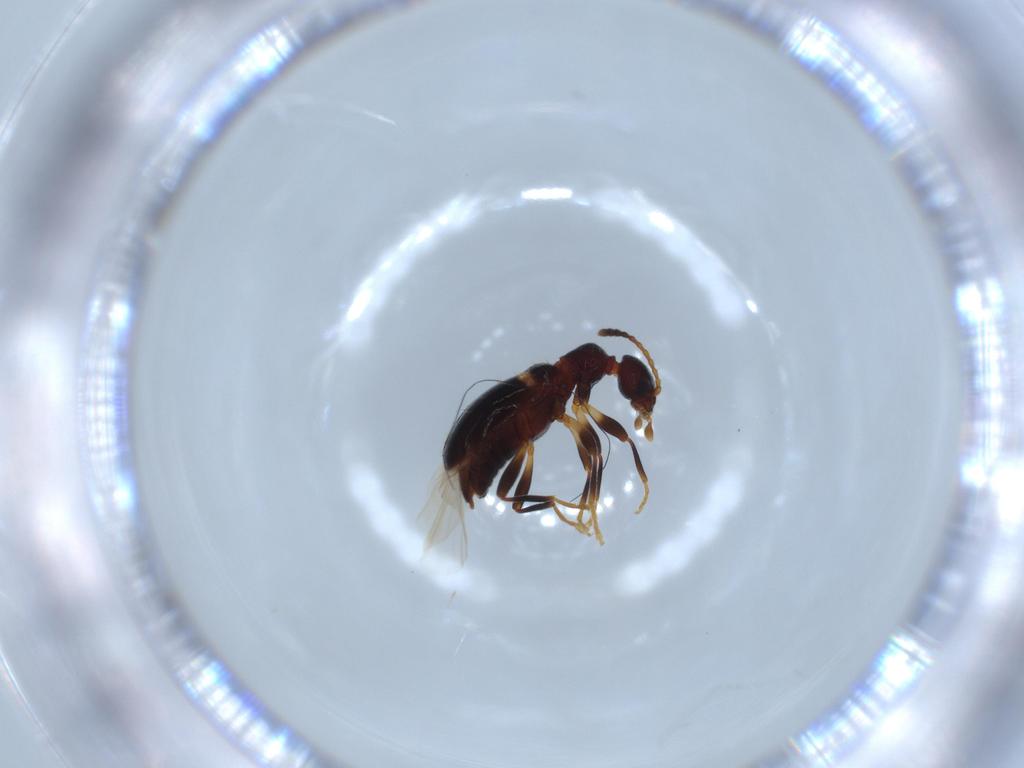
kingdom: Animalia
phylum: Arthropoda
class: Insecta
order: Coleoptera
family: Anthicidae
